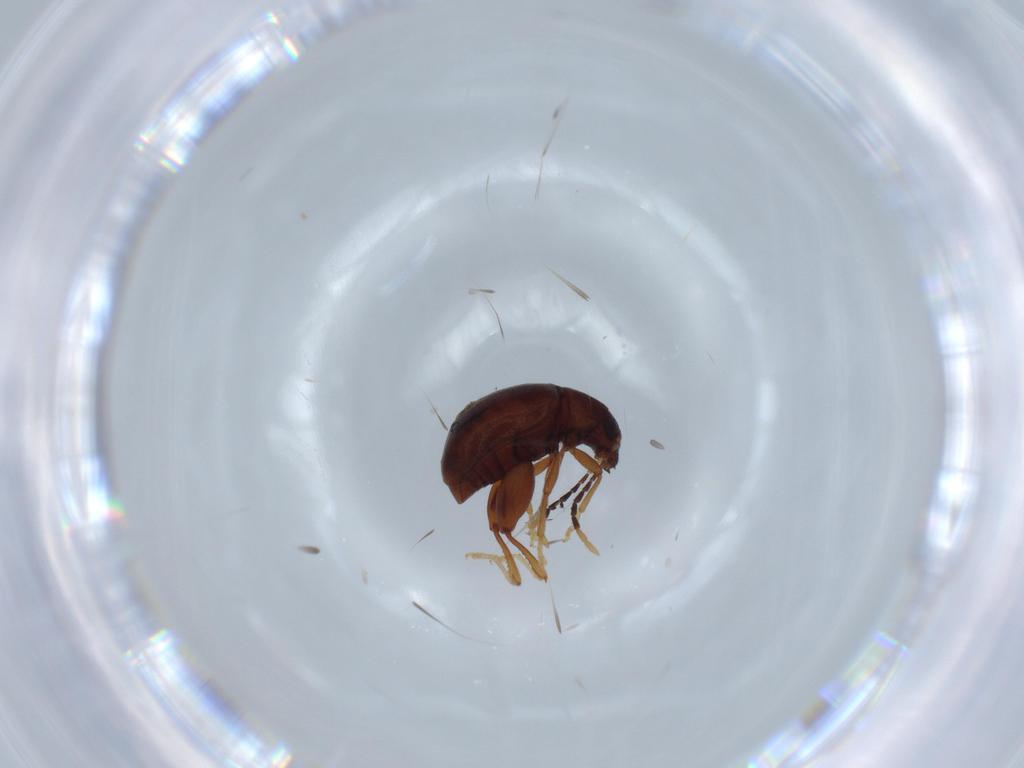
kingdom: Animalia
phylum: Arthropoda
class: Insecta
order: Coleoptera
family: Chrysomelidae
